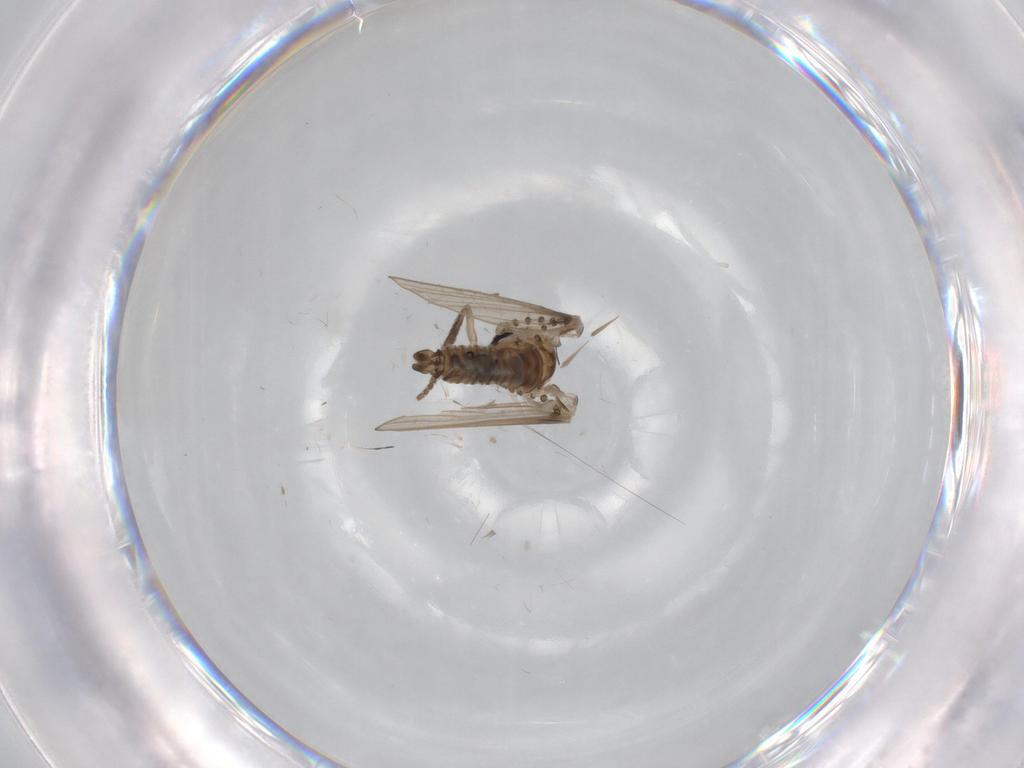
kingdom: Animalia
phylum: Arthropoda
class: Insecta
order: Diptera
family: Psychodidae
